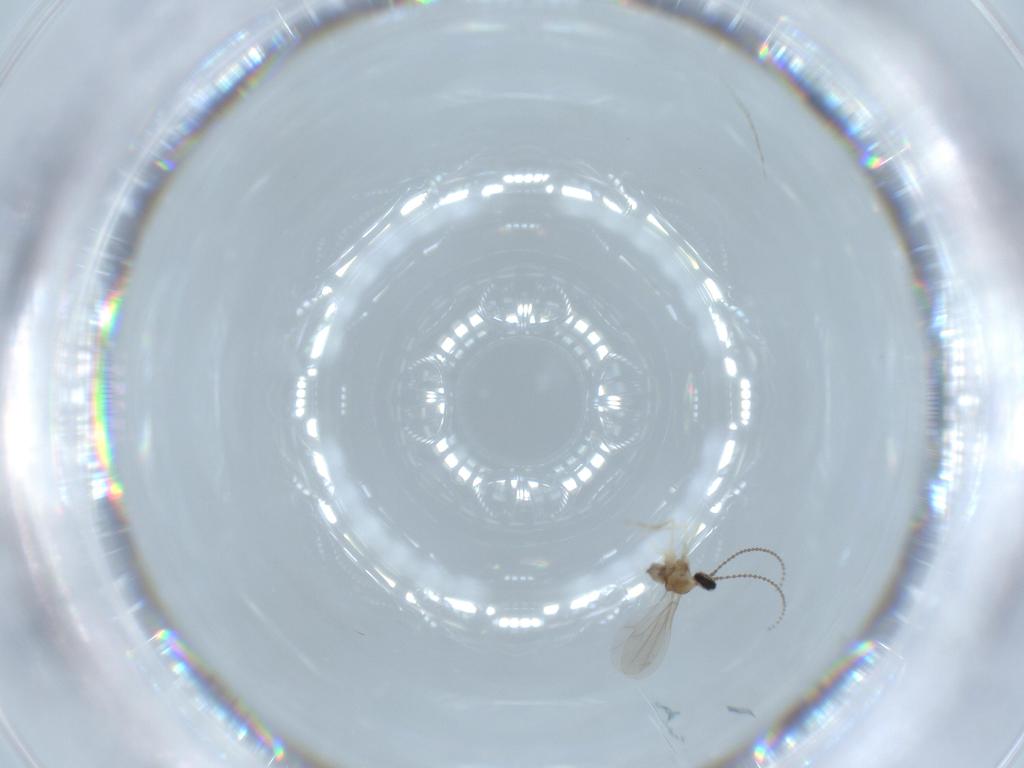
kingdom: Animalia
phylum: Arthropoda
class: Insecta
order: Diptera
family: Cecidomyiidae
